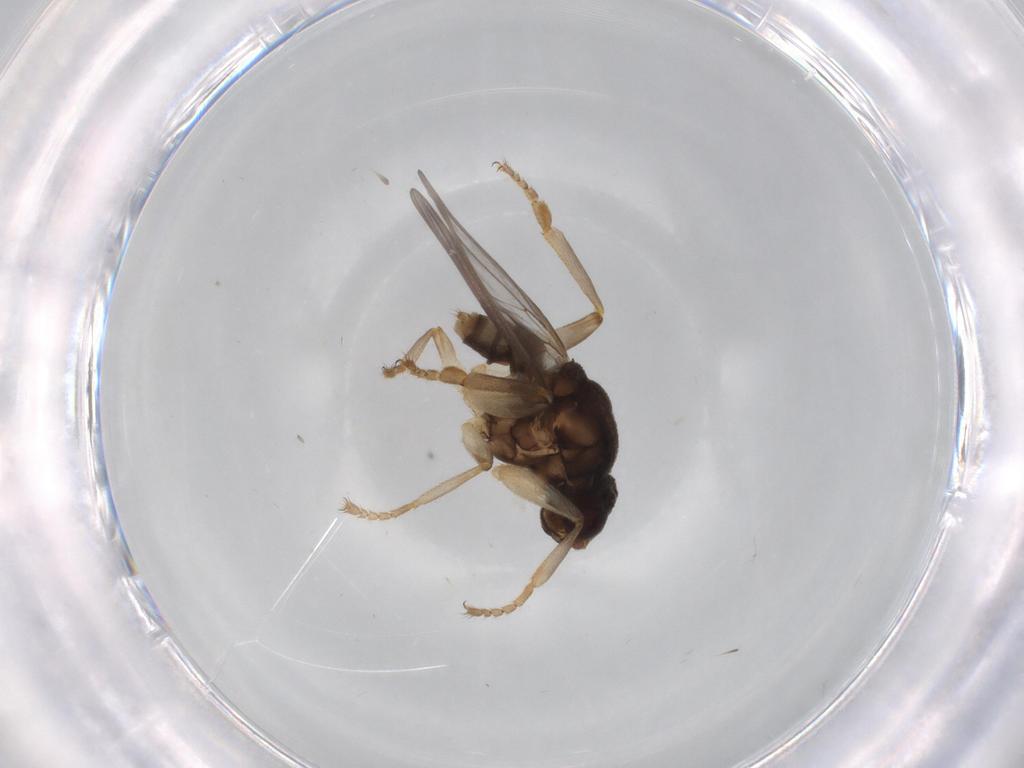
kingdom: Animalia
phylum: Arthropoda
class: Insecta
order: Diptera
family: Sphaeroceridae
